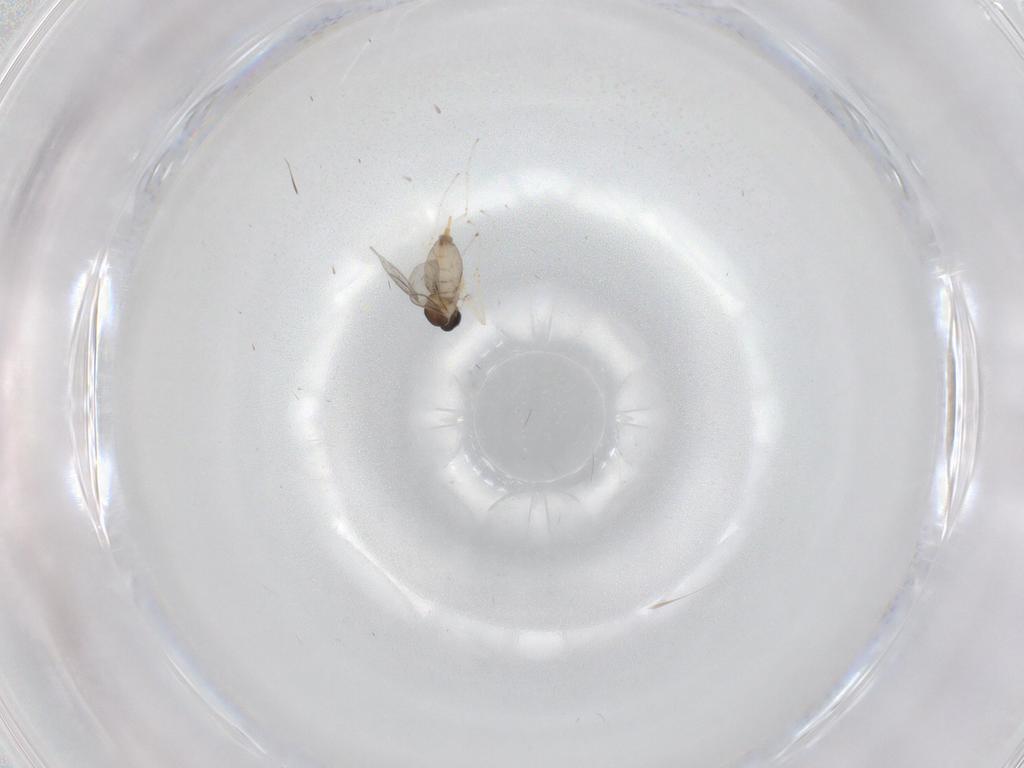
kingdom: Animalia
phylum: Arthropoda
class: Insecta
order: Diptera
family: Cecidomyiidae
